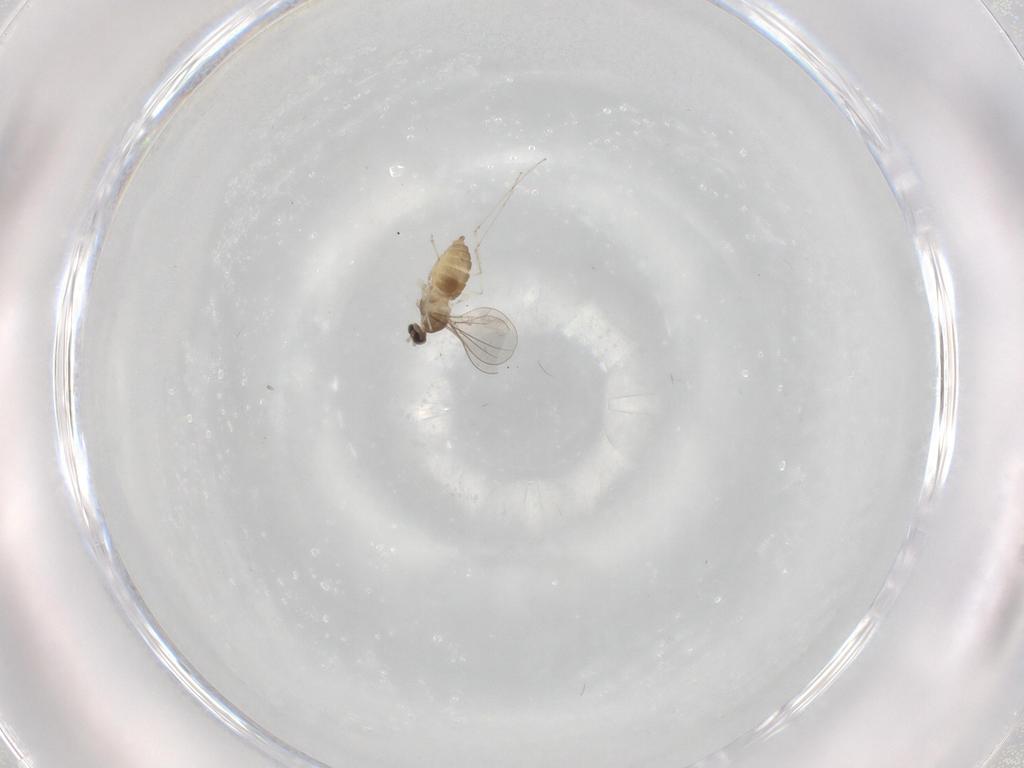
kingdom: Animalia
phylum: Arthropoda
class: Insecta
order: Diptera
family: Cecidomyiidae
